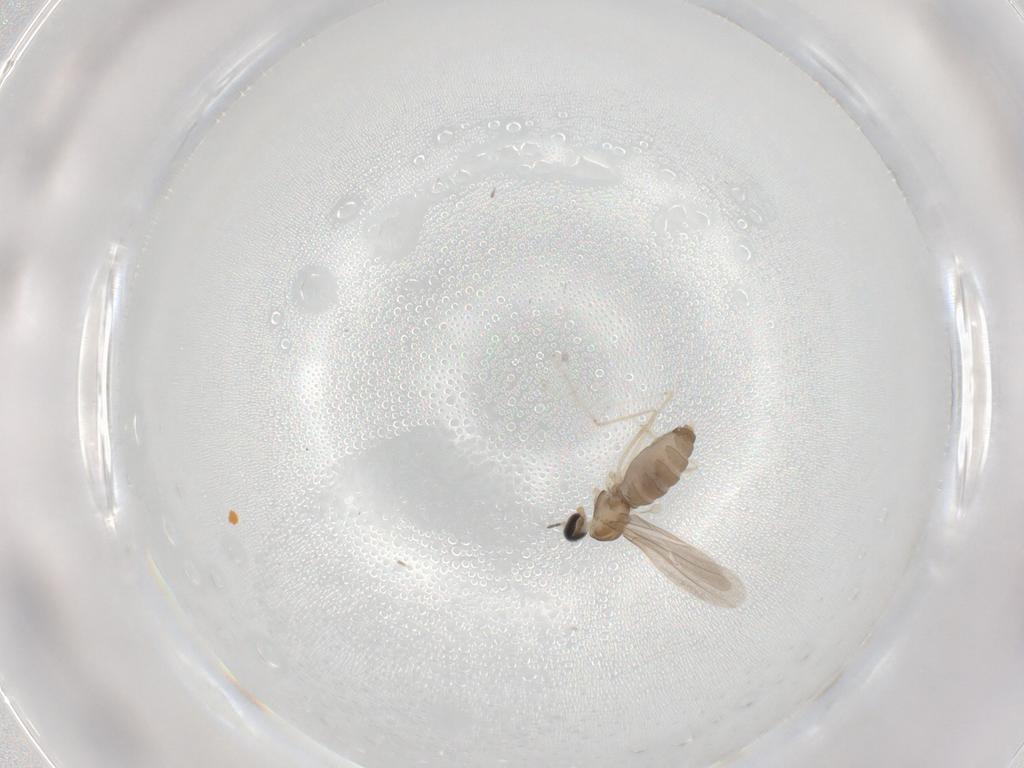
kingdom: Animalia
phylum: Arthropoda
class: Insecta
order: Diptera
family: Cecidomyiidae
